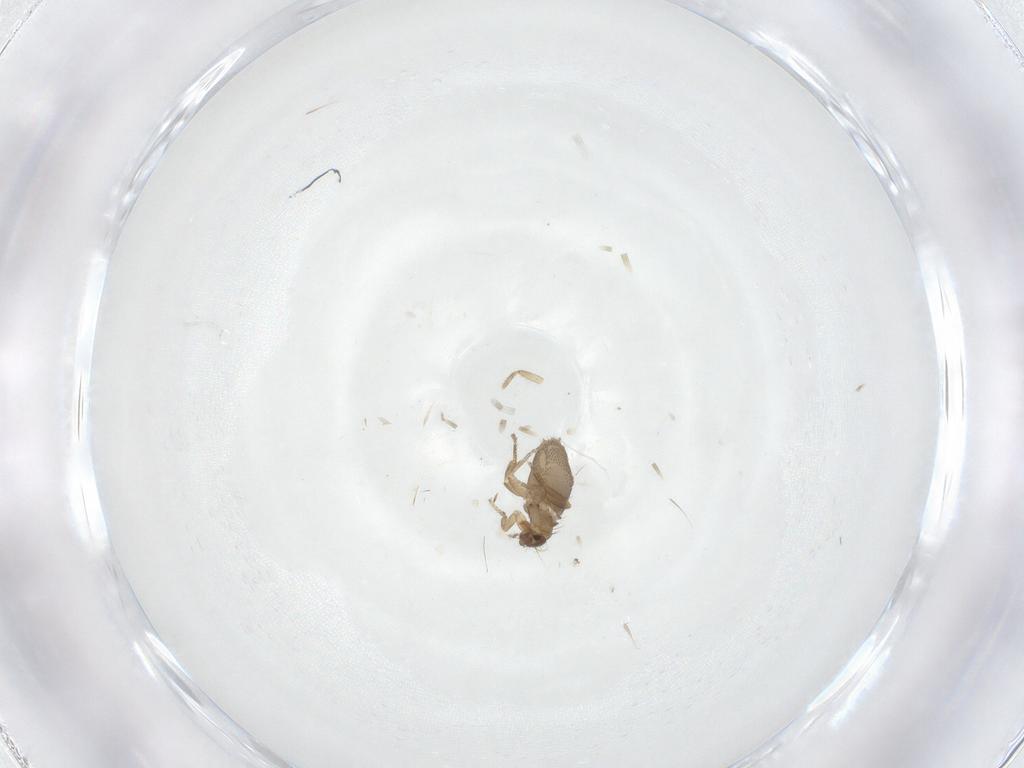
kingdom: Animalia
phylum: Arthropoda
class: Insecta
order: Diptera
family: Phoridae
